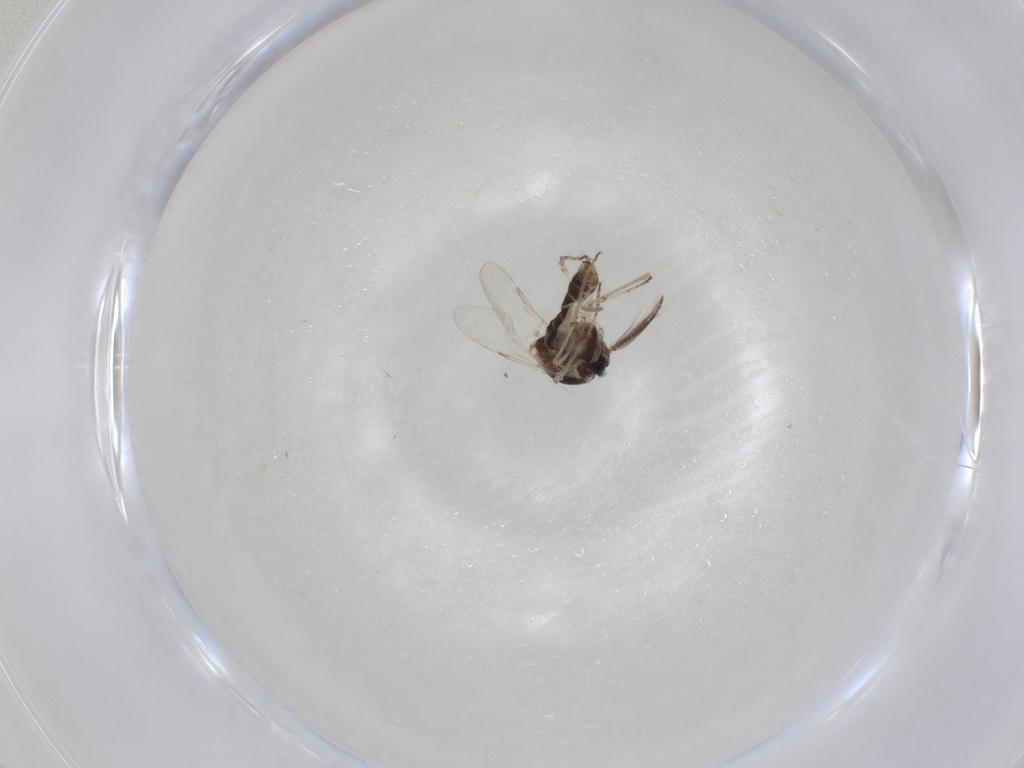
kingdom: Animalia
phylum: Arthropoda
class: Insecta
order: Diptera
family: Ceratopogonidae
